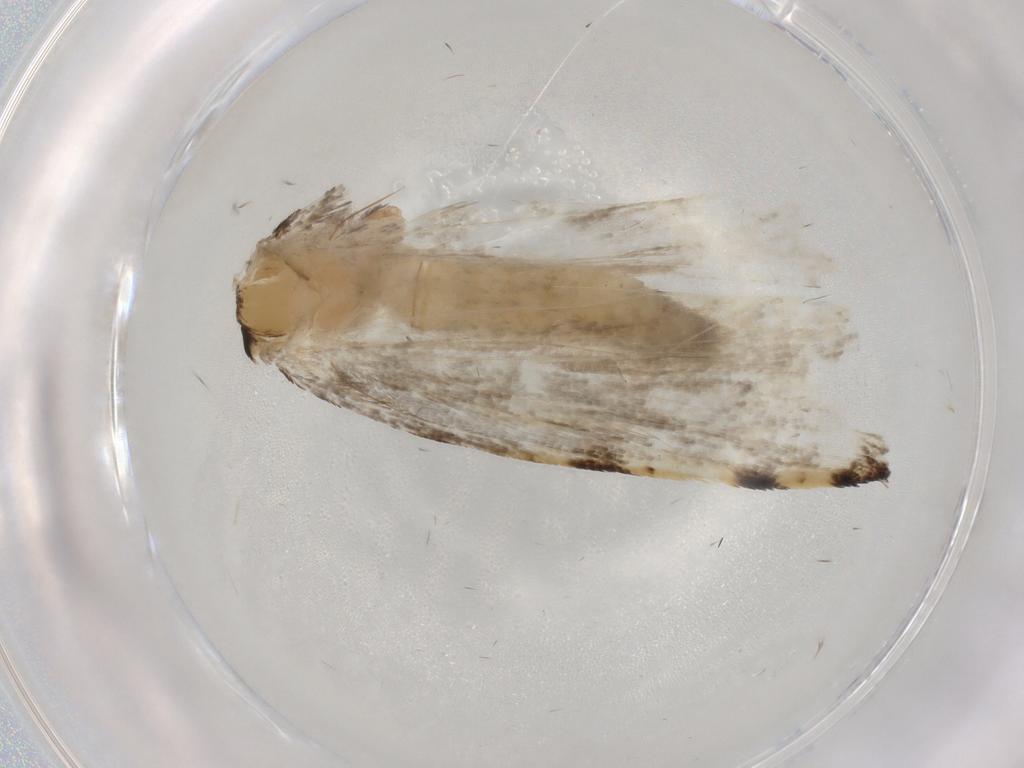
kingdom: Animalia
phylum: Arthropoda
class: Insecta
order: Lepidoptera
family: Tineidae
